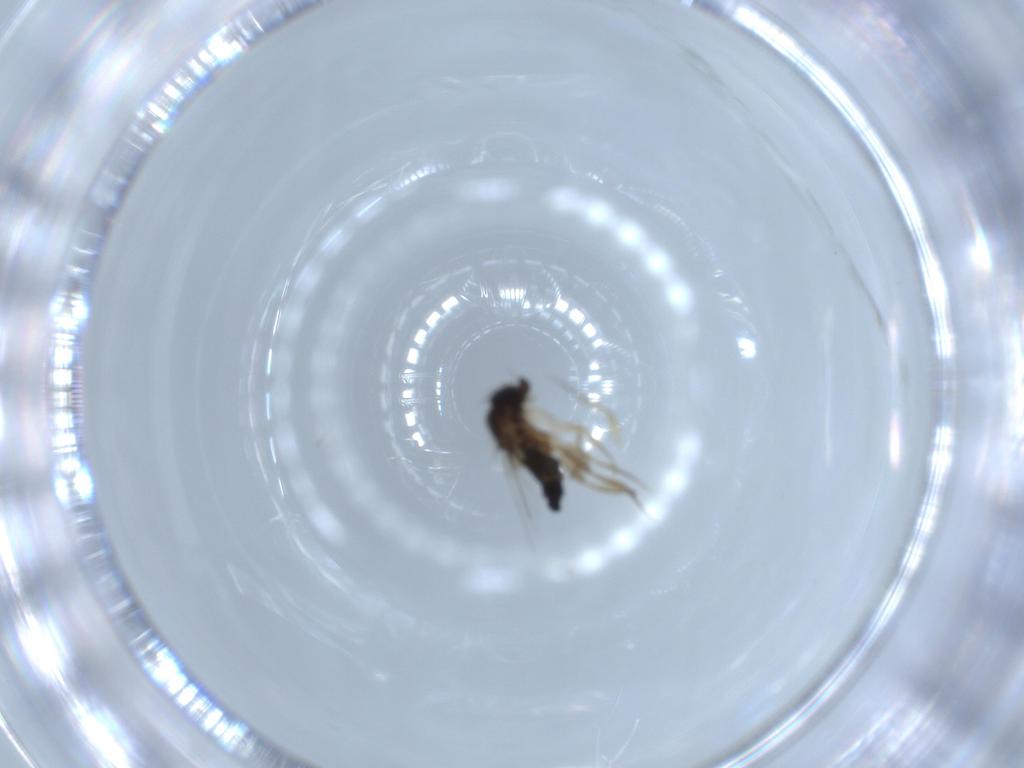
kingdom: Animalia
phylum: Arthropoda
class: Insecta
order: Diptera
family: Phoridae
